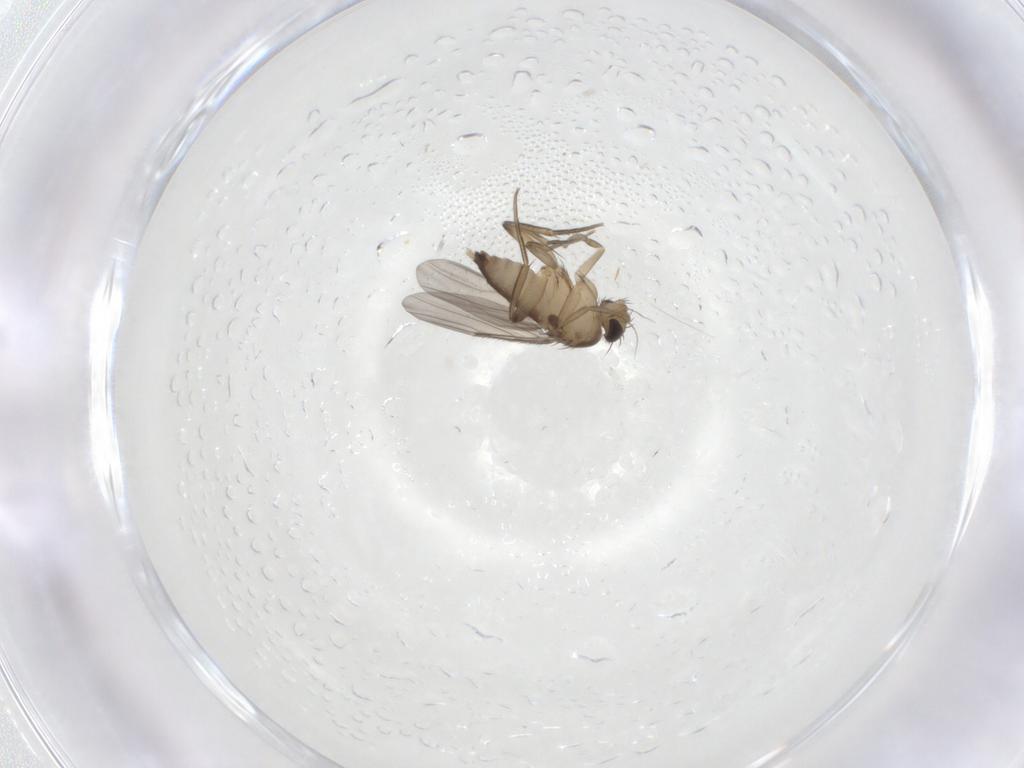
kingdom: Animalia
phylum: Arthropoda
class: Insecta
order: Diptera
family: Phoridae
